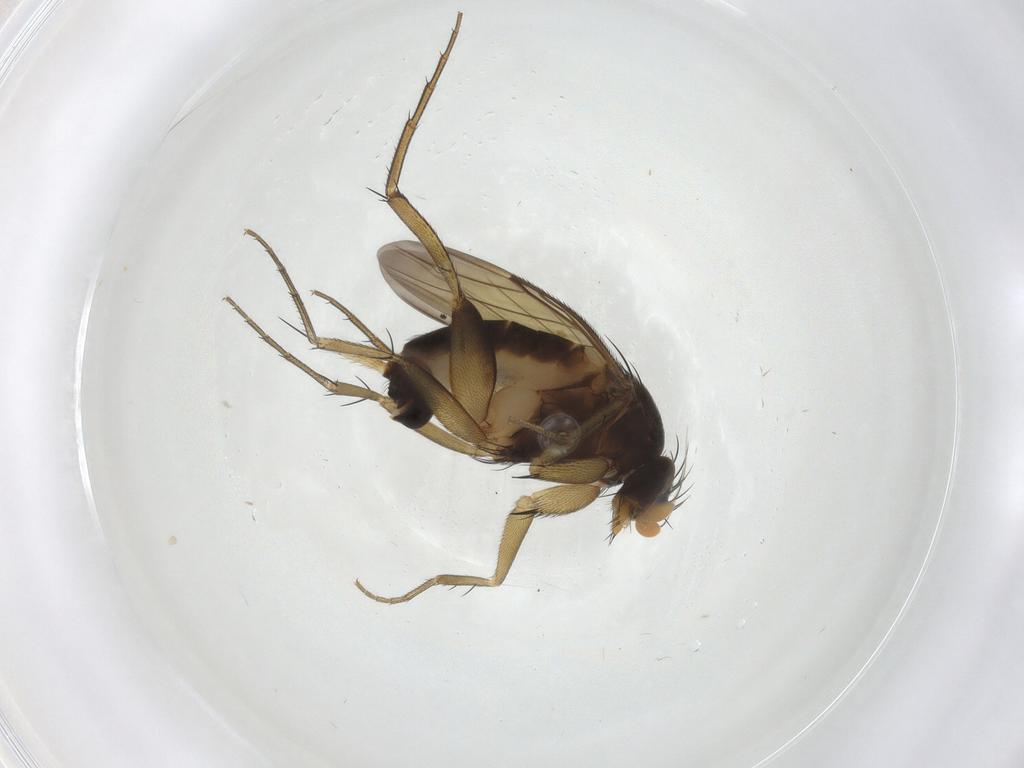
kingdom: Animalia
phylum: Arthropoda
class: Insecta
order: Diptera
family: Phoridae
